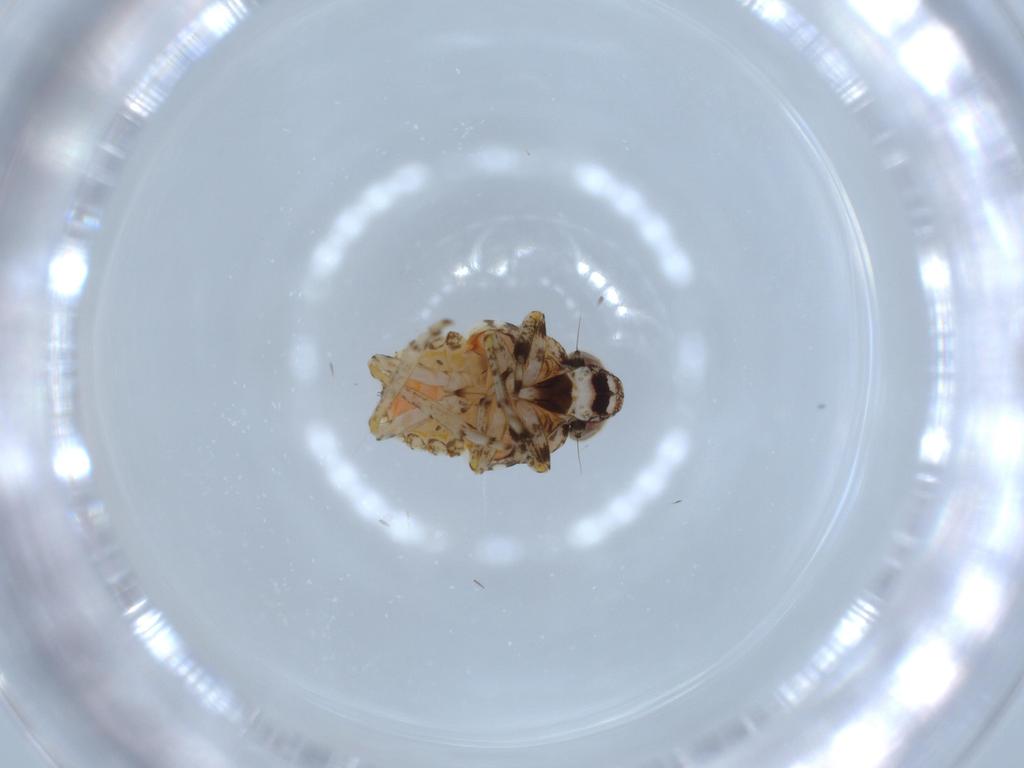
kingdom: Animalia
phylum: Arthropoda
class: Insecta
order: Hemiptera
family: Issidae
